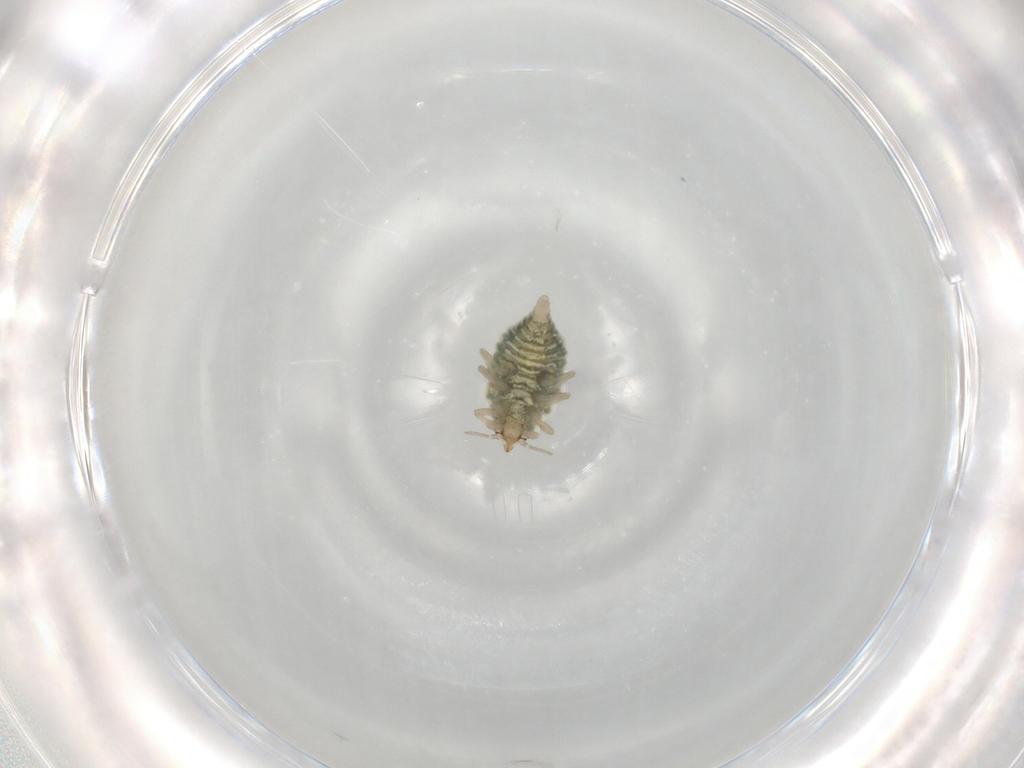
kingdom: Animalia
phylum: Arthropoda
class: Insecta
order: Neuroptera
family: Coniopterygidae
